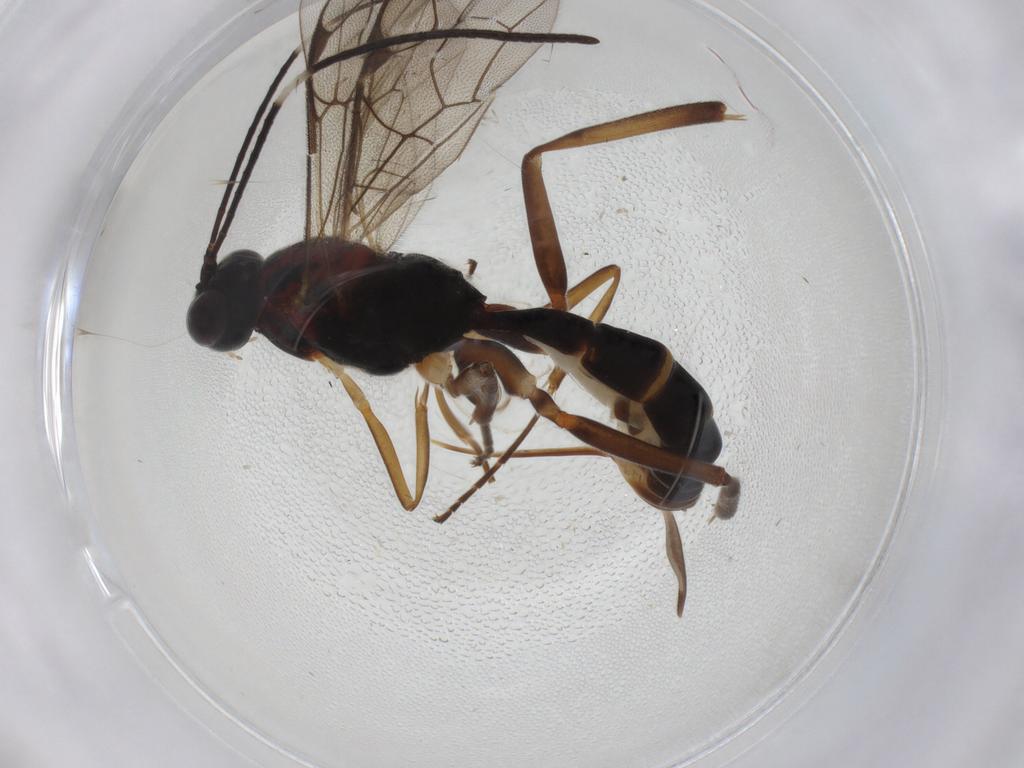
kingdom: Animalia
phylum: Arthropoda
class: Insecta
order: Hymenoptera
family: Ichneumonidae
